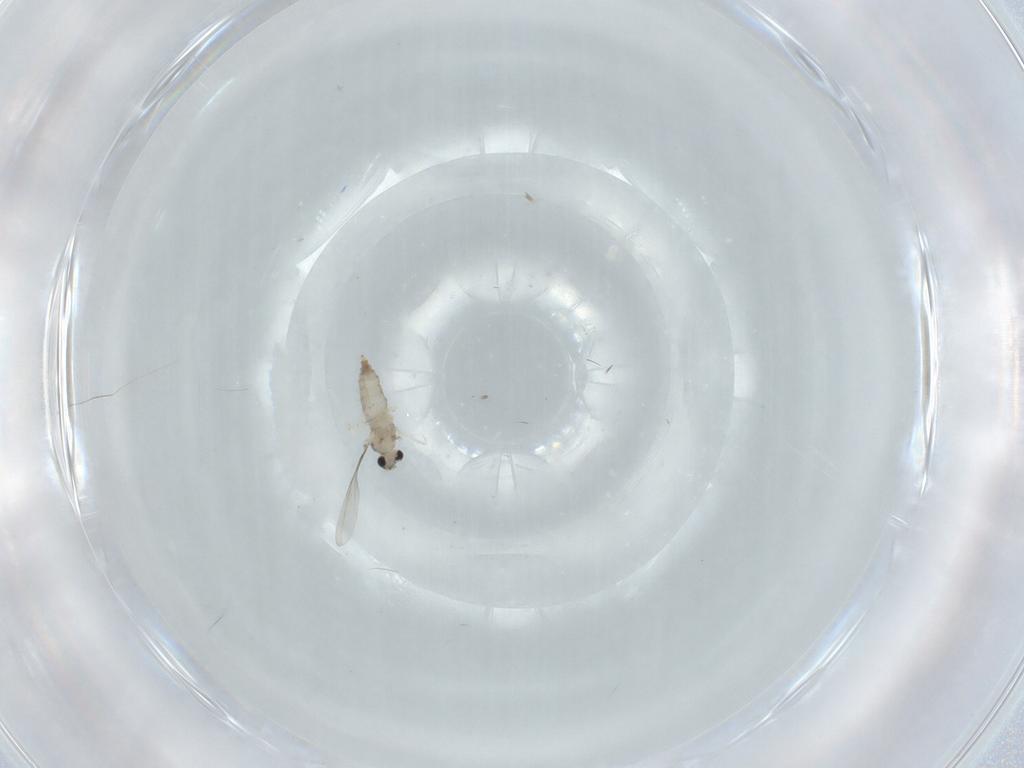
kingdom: Animalia
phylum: Arthropoda
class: Insecta
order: Diptera
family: Cecidomyiidae
